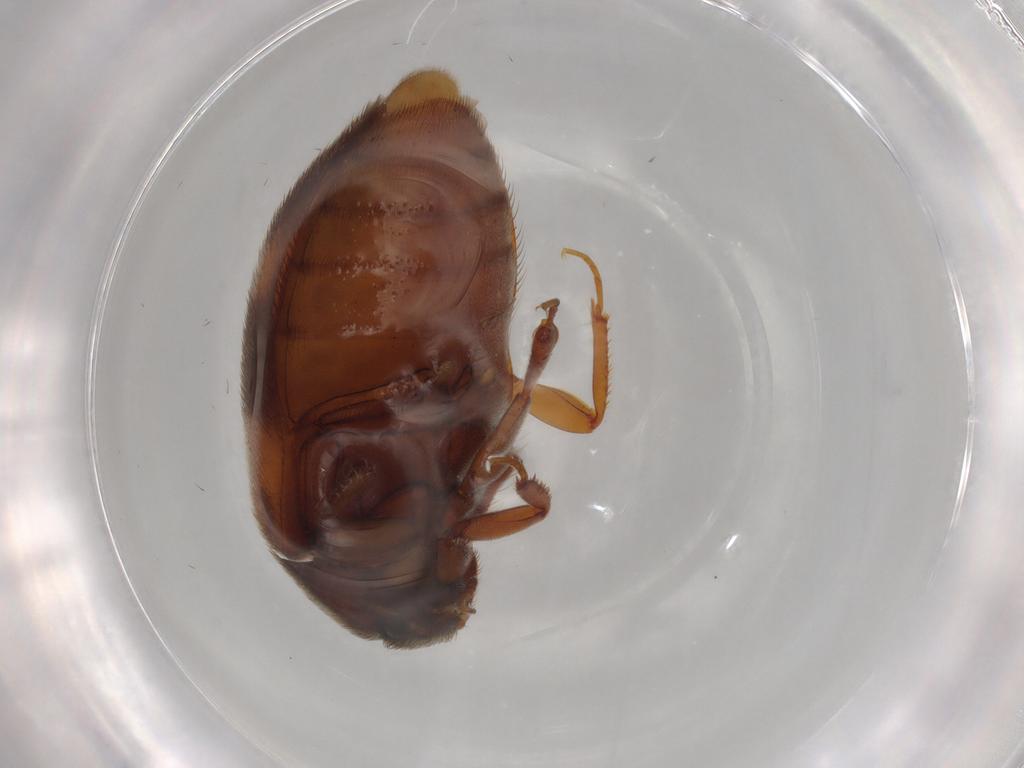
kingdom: Animalia
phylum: Arthropoda
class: Insecta
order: Coleoptera
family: Dermestidae
